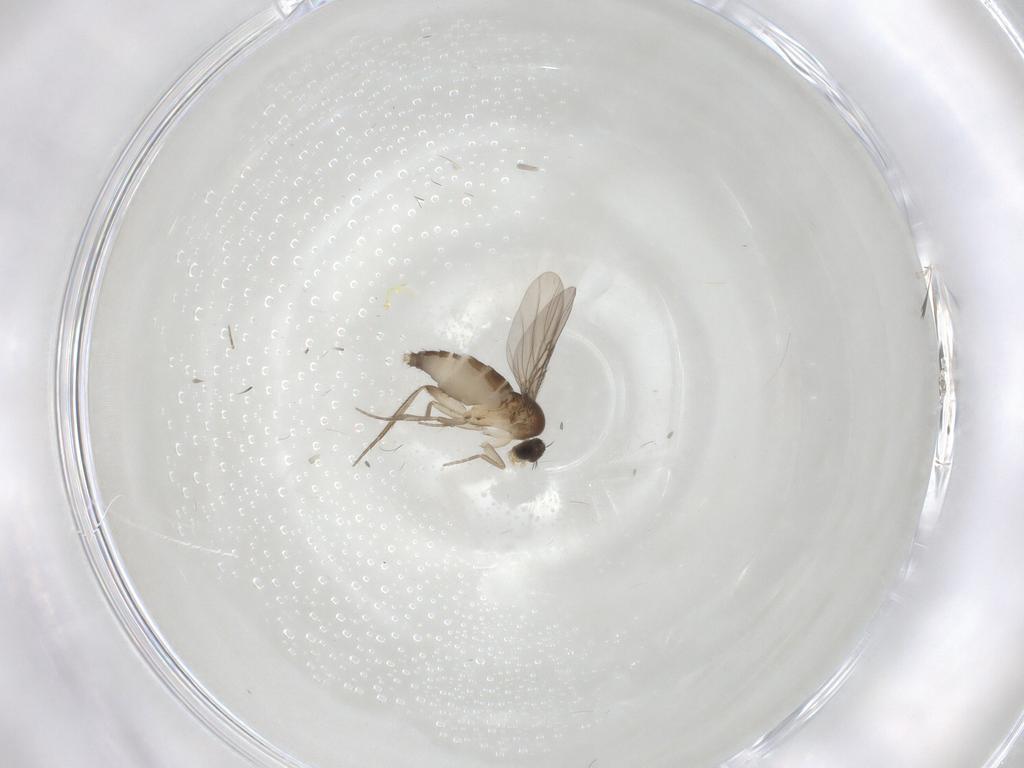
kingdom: Animalia
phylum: Arthropoda
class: Insecta
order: Diptera
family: Phoridae
